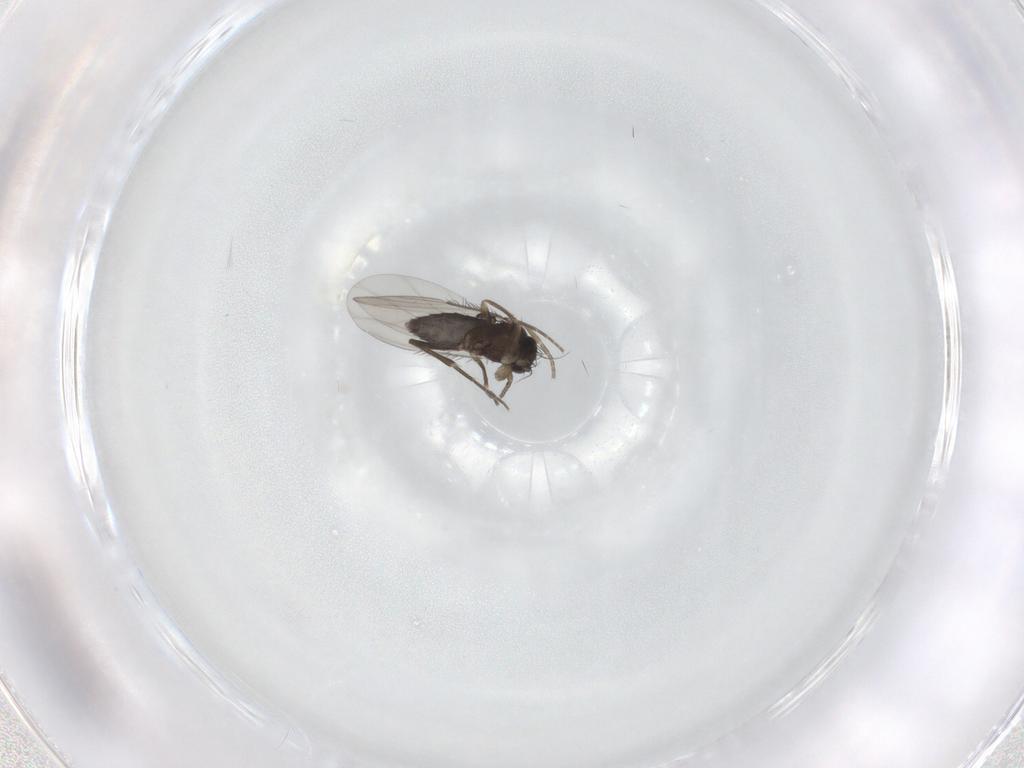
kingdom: Animalia
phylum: Arthropoda
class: Insecta
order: Diptera
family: Phoridae
